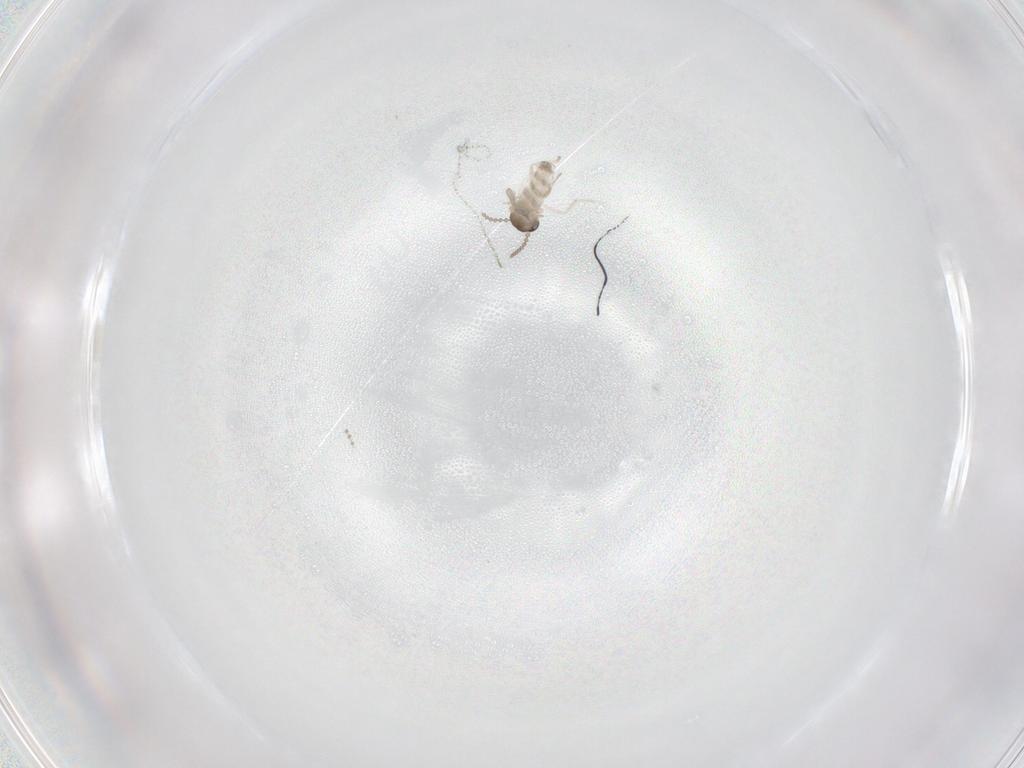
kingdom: Animalia
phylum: Arthropoda
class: Insecta
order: Diptera
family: Cecidomyiidae
